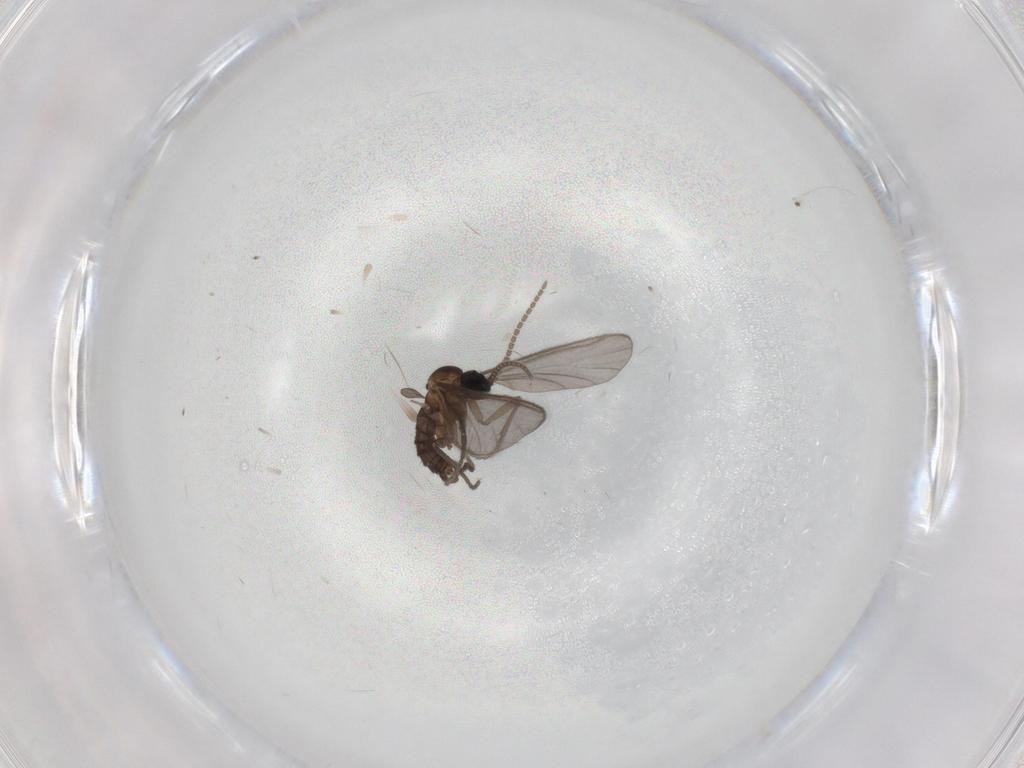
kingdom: Animalia
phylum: Arthropoda
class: Insecta
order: Diptera
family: Sciaridae
